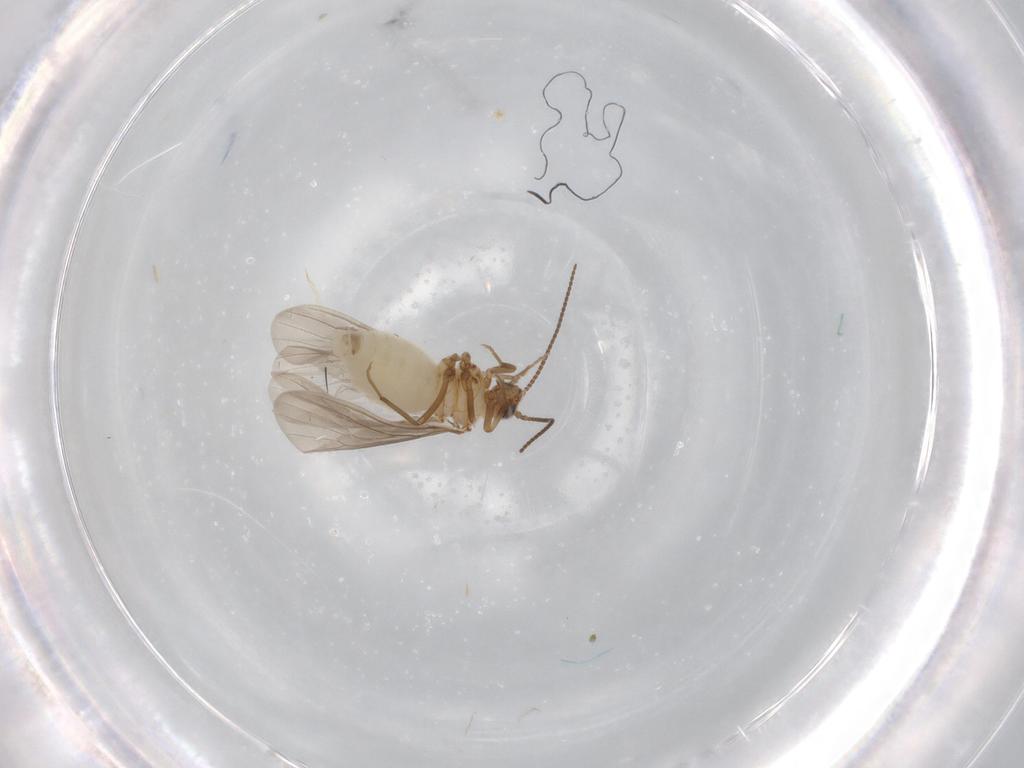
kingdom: Animalia
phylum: Arthropoda
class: Insecta
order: Neuroptera
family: Coniopterygidae
